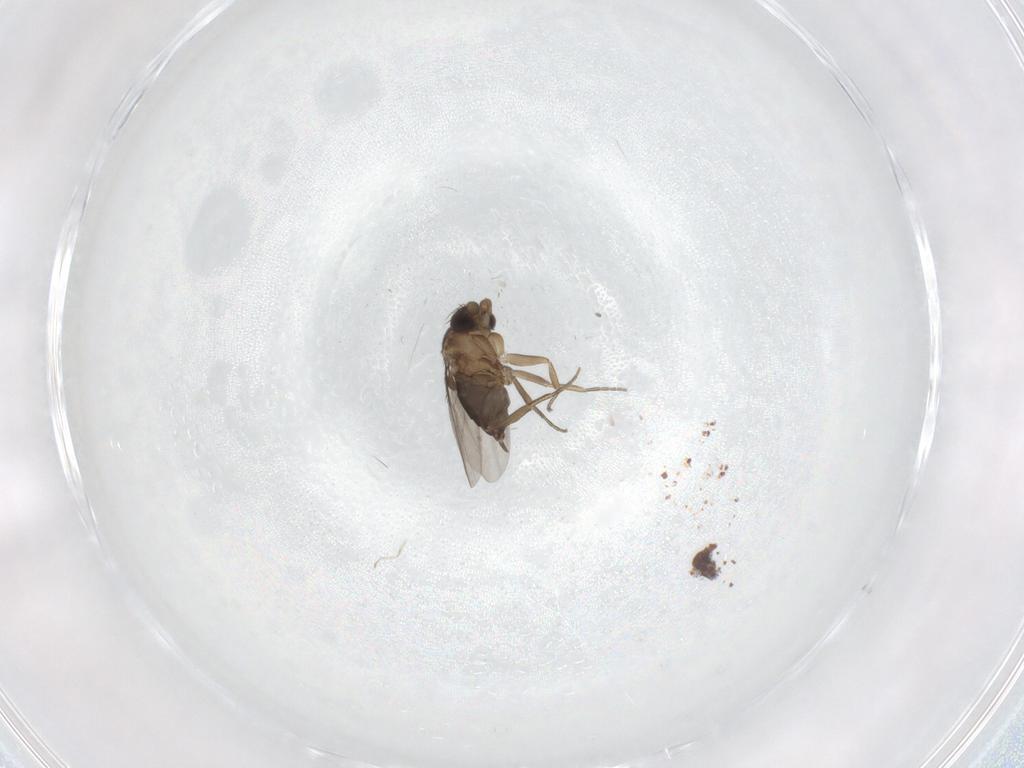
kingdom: Animalia
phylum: Arthropoda
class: Insecta
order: Diptera
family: Phoridae
